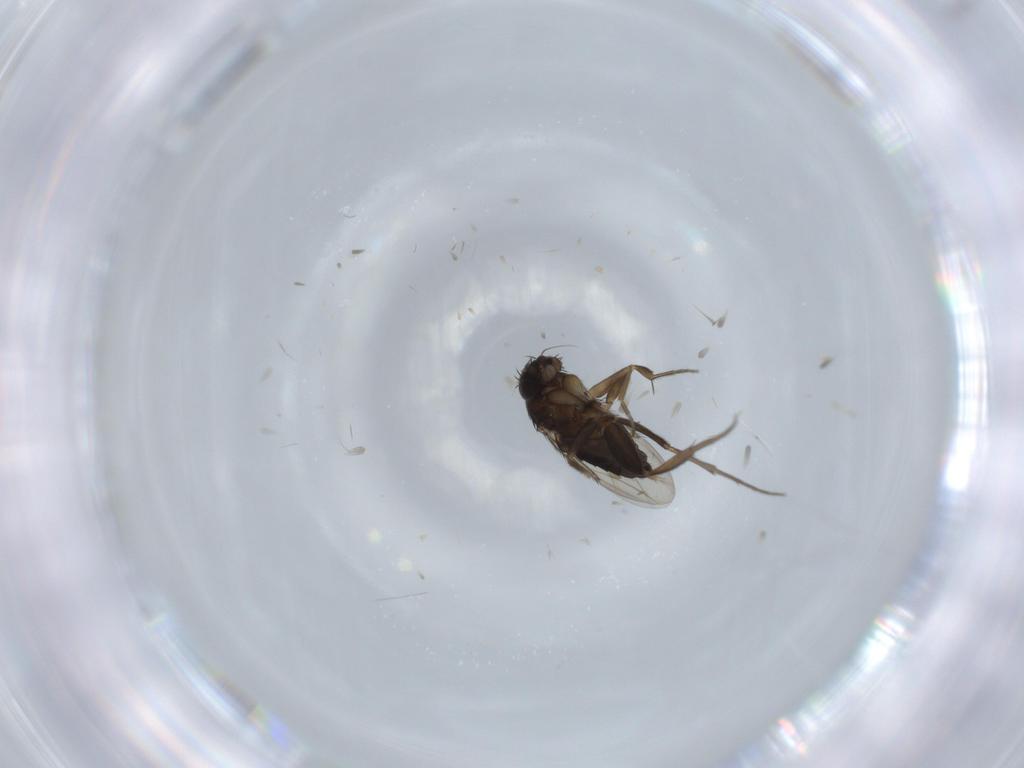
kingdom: Animalia
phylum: Arthropoda
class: Insecta
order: Diptera
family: Phoridae
